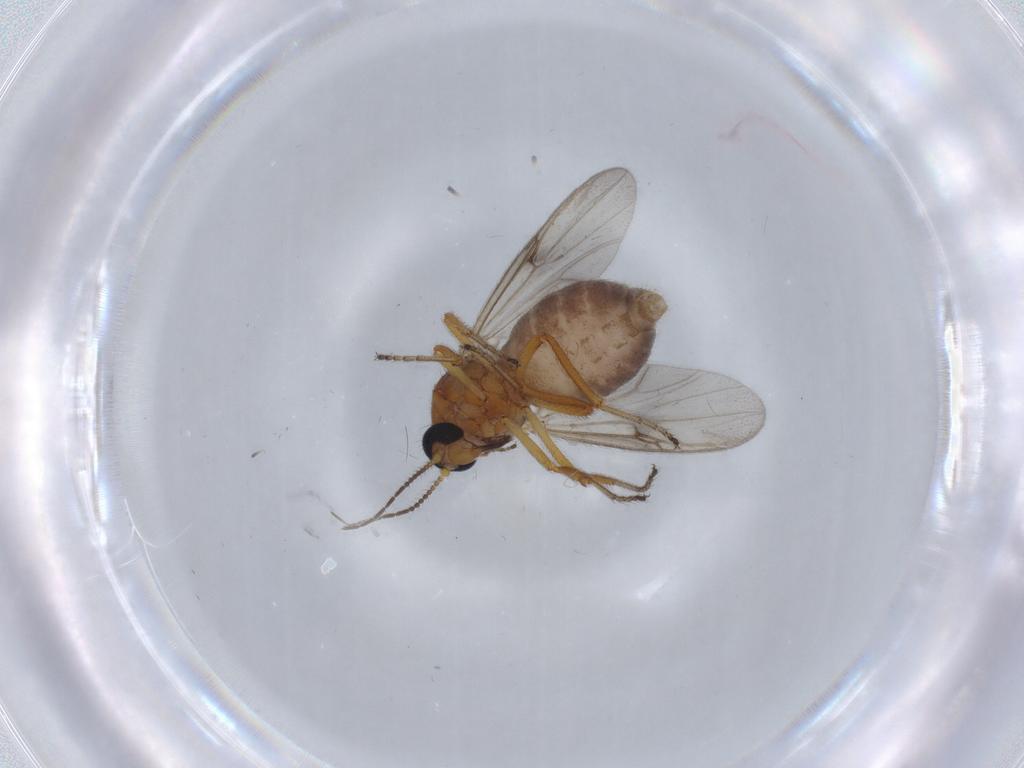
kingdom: Animalia
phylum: Arthropoda
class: Insecta
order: Diptera
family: Ceratopogonidae
